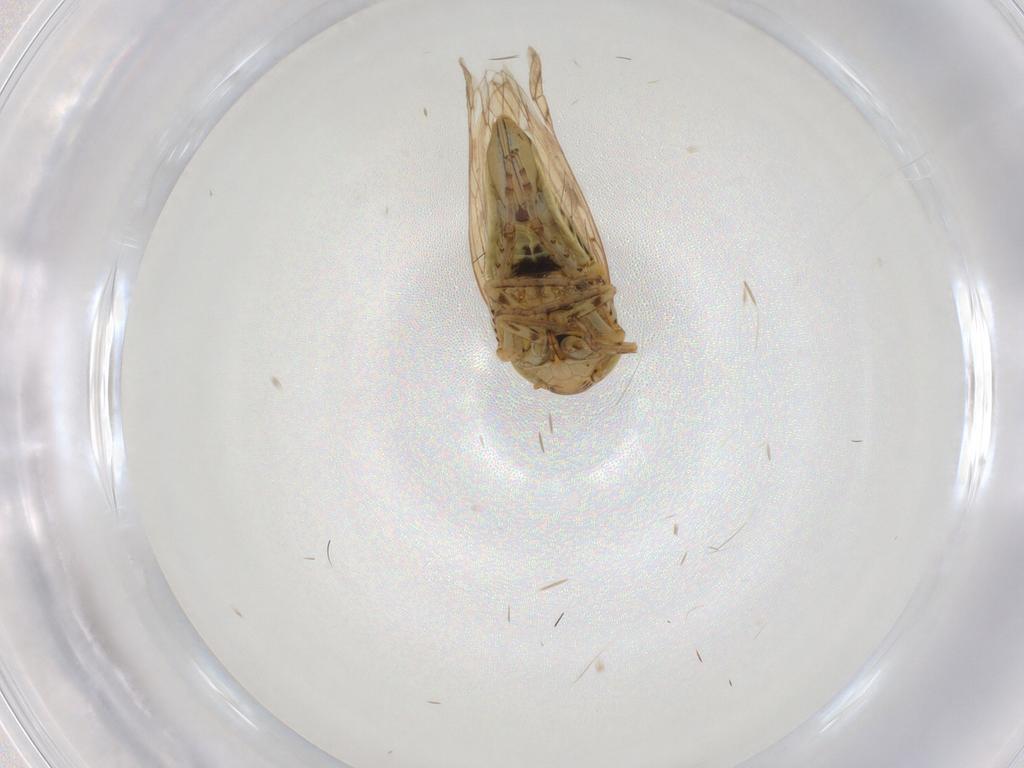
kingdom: Animalia
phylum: Arthropoda
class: Insecta
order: Hemiptera
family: Cicadellidae
